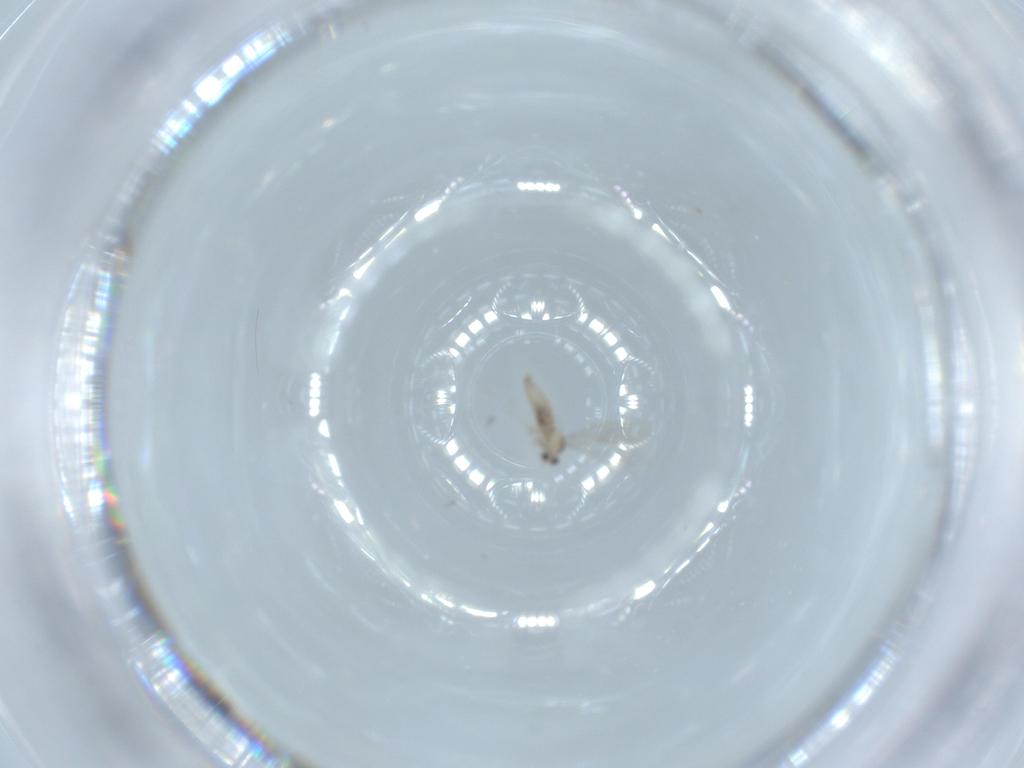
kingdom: Animalia
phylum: Arthropoda
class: Insecta
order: Diptera
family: Cecidomyiidae
